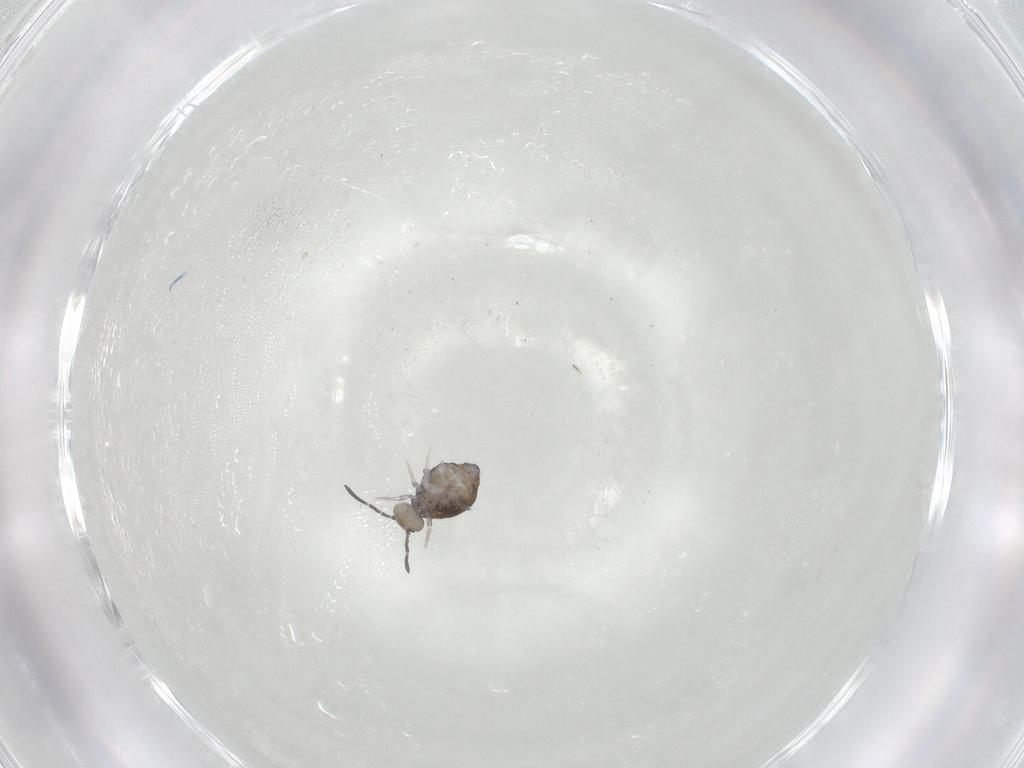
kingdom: Animalia
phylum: Arthropoda
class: Collembola
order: Symphypleona
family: Katiannidae
